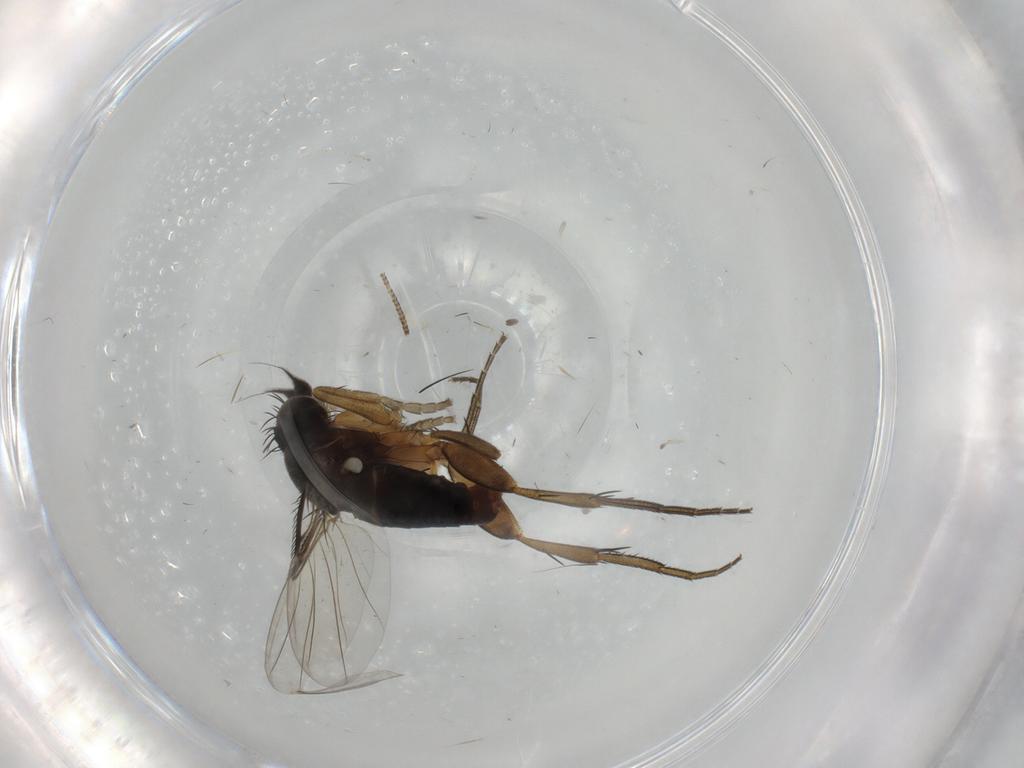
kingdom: Animalia
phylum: Arthropoda
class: Insecta
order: Diptera
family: Phoridae
